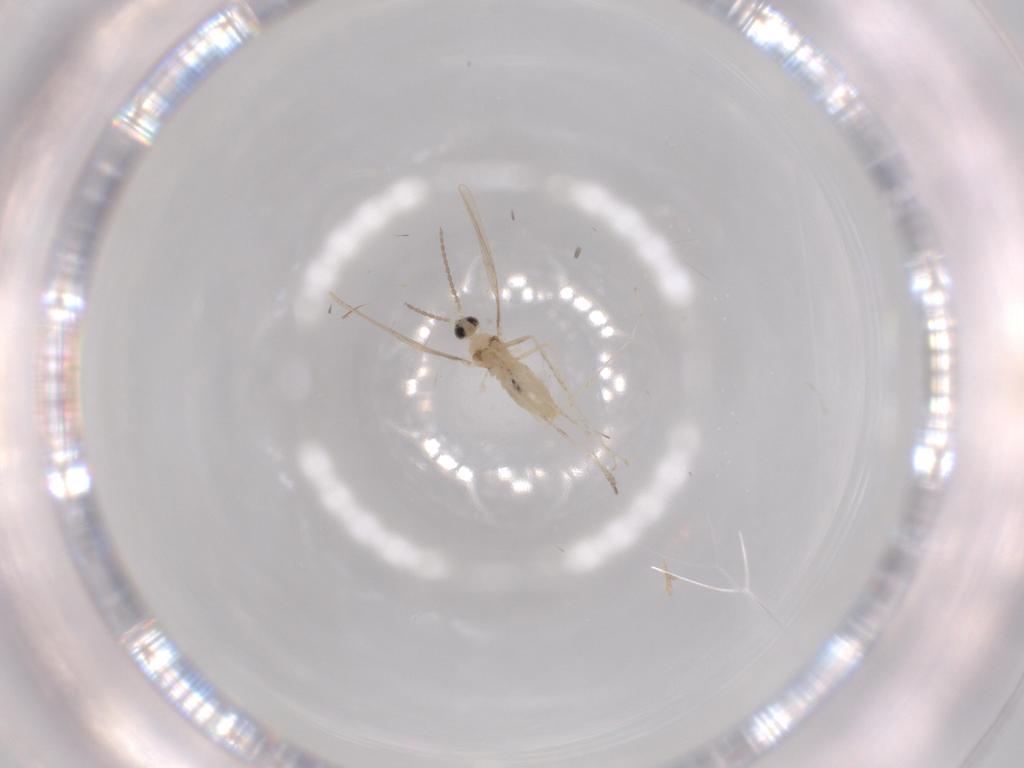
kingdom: Animalia
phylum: Arthropoda
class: Insecta
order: Diptera
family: Cecidomyiidae
